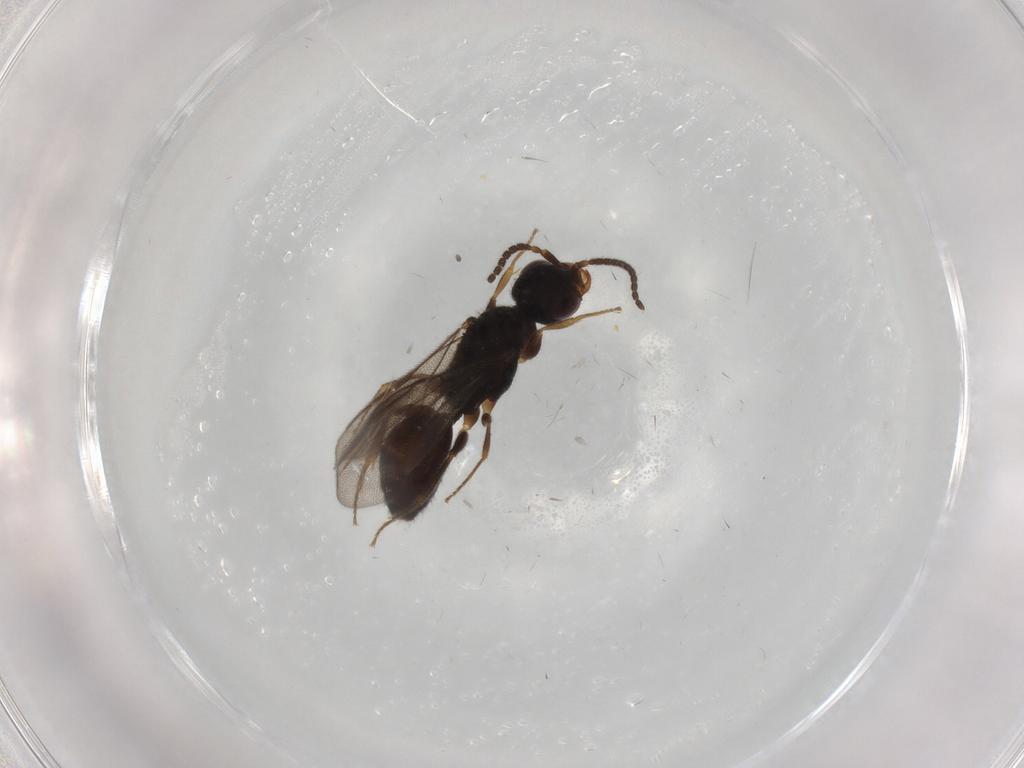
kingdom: Animalia
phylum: Arthropoda
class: Insecta
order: Hymenoptera
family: Bethylidae
